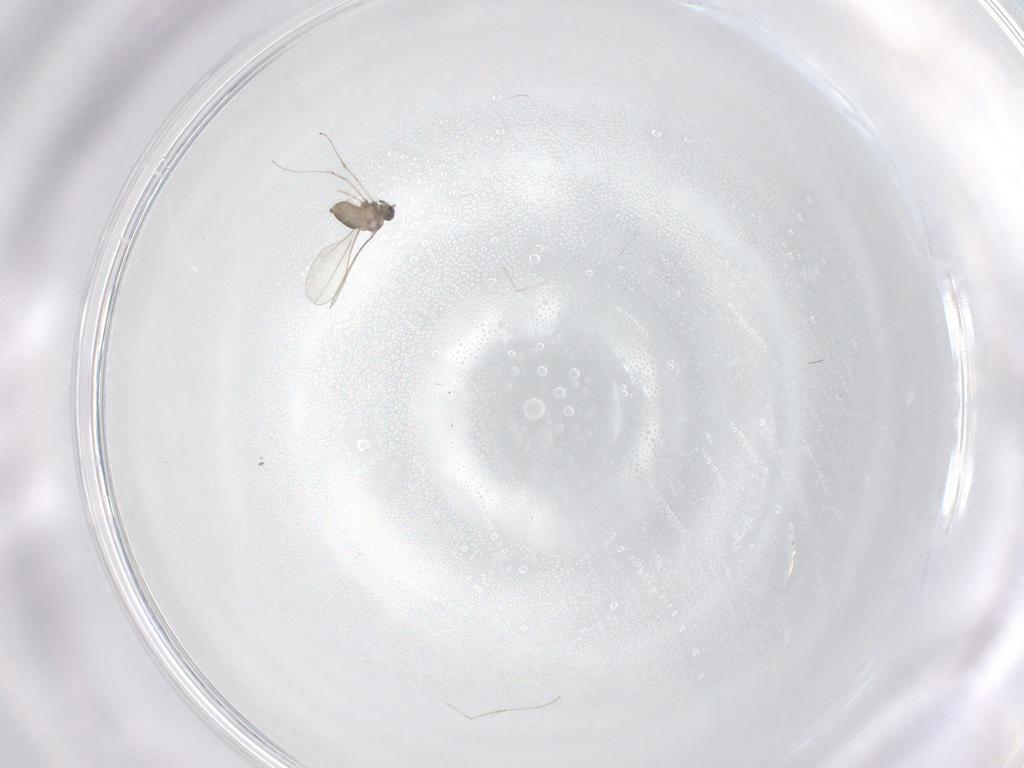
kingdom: Animalia
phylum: Arthropoda
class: Insecta
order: Diptera
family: Cecidomyiidae
